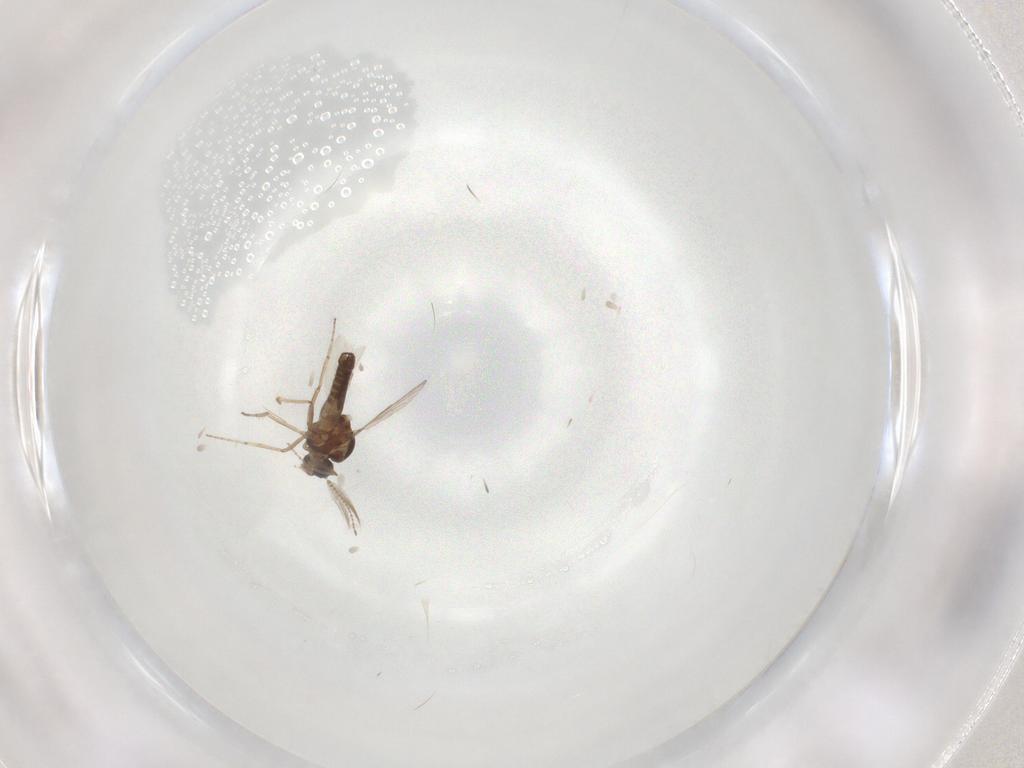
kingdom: Animalia
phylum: Arthropoda
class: Insecta
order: Diptera
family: Ceratopogonidae
